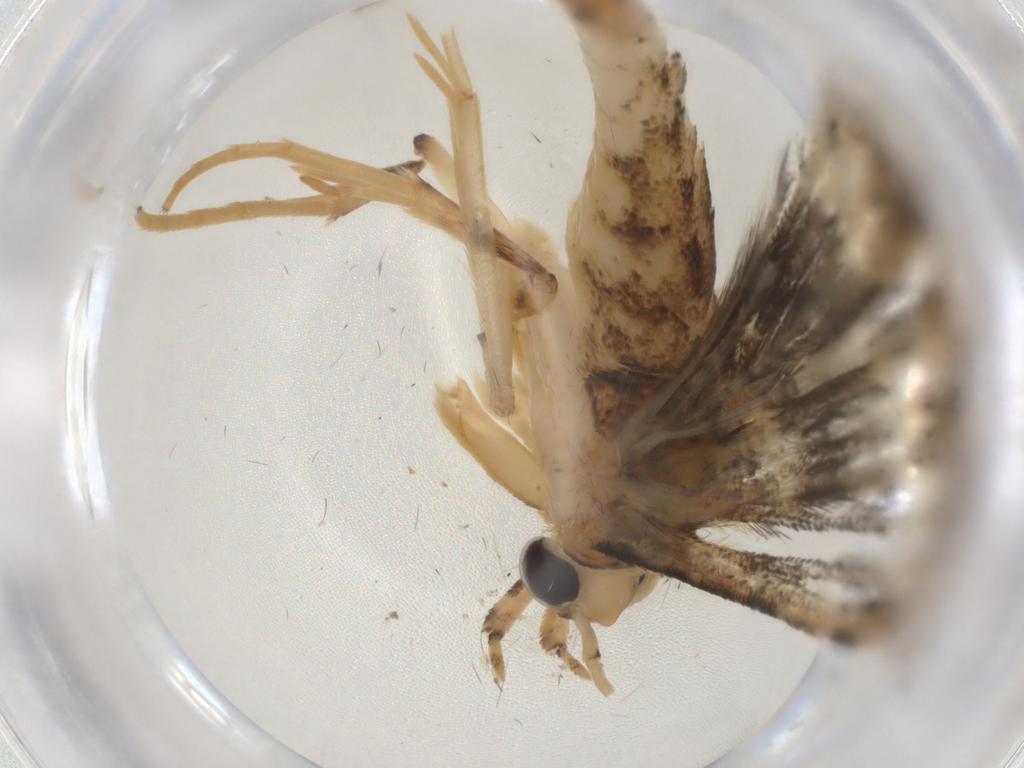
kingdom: Animalia
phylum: Arthropoda
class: Insecta
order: Lepidoptera
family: Gelechiidae
